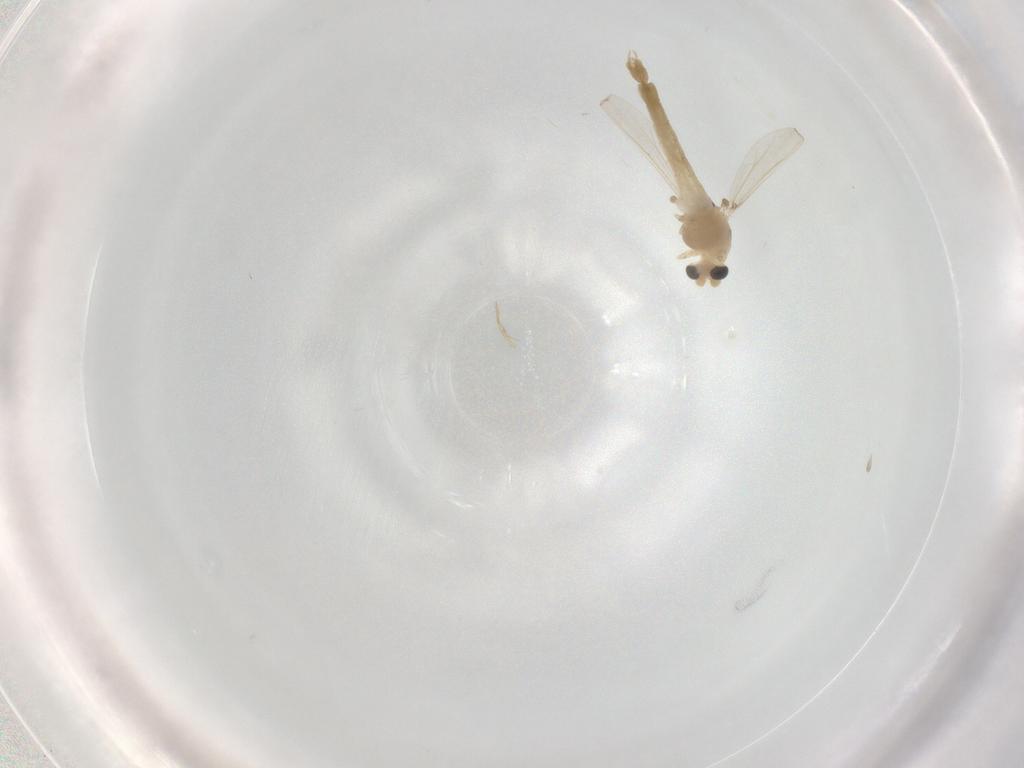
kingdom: Animalia
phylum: Arthropoda
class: Insecta
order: Diptera
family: Chironomidae
